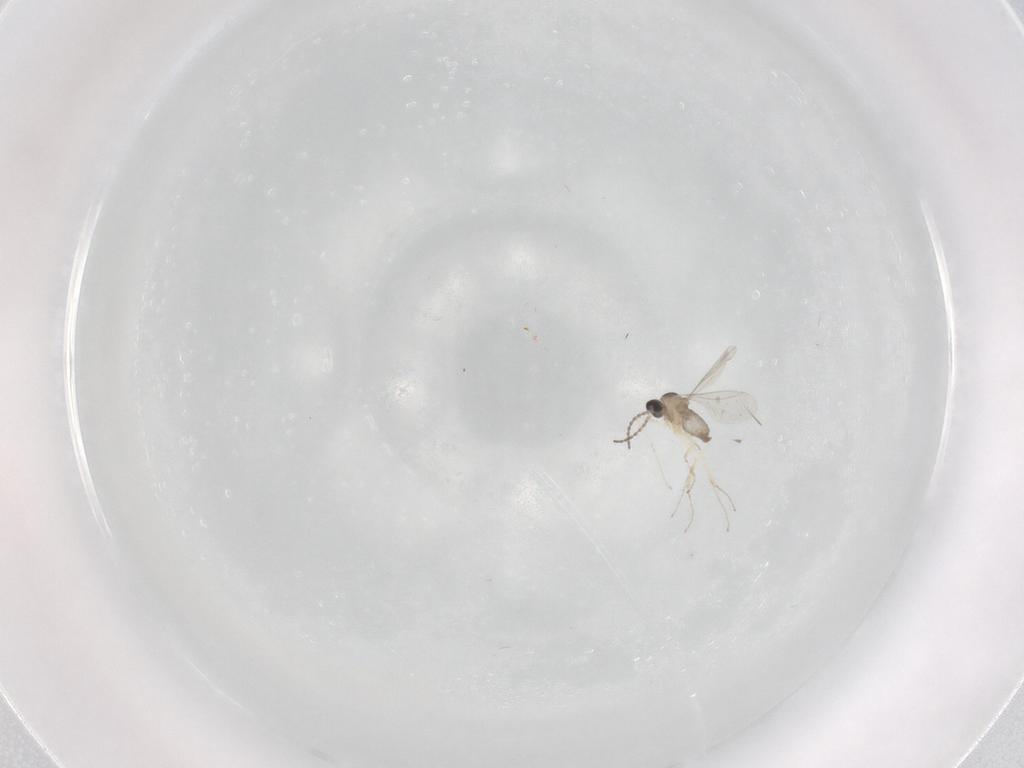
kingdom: Animalia
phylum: Arthropoda
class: Insecta
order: Diptera
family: Cecidomyiidae
